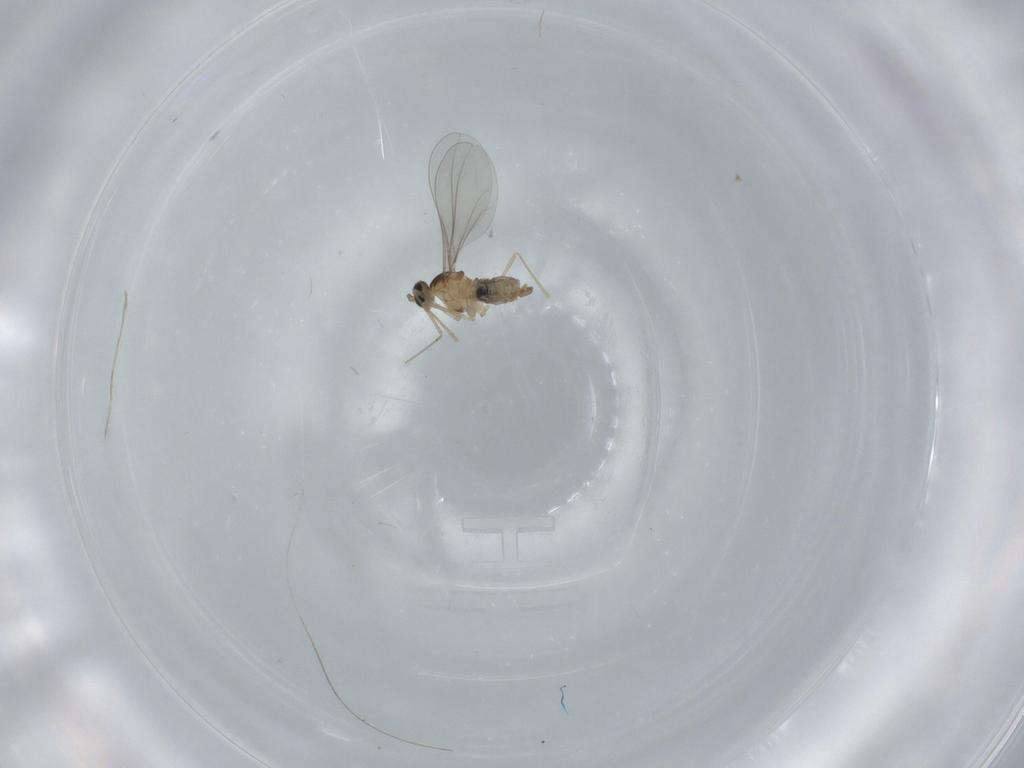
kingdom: Animalia
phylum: Arthropoda
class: Insecta
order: Diptera
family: Cecidomyiidae
